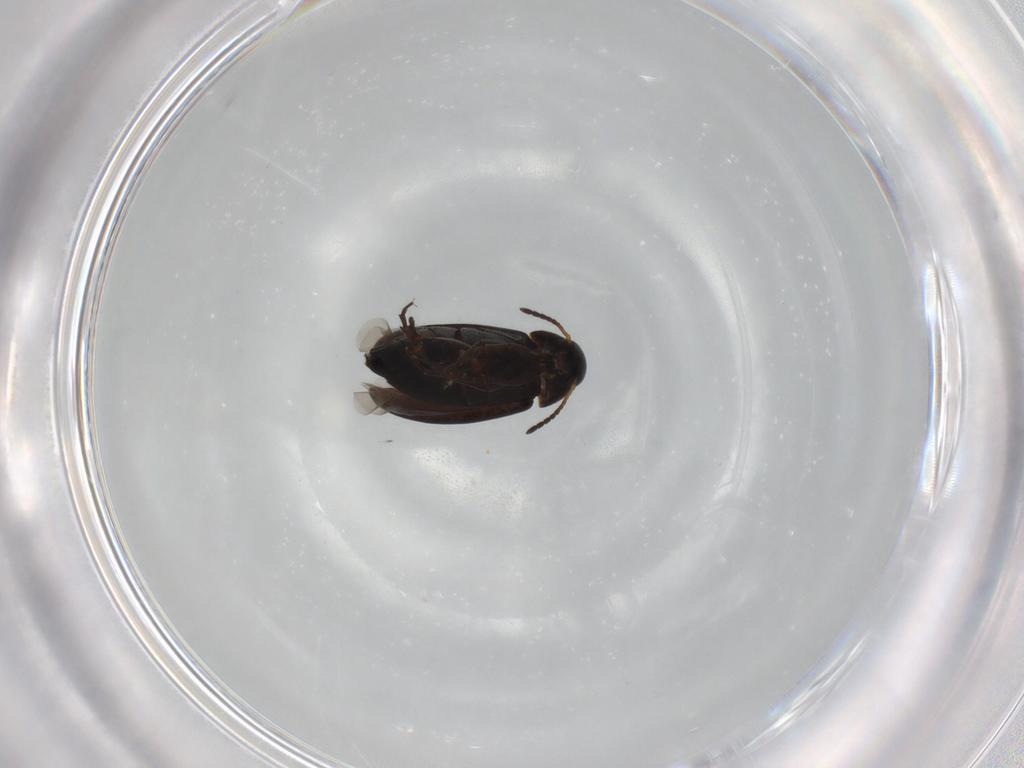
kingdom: Animalia
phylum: Arthropoda
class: Insecta
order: Coleoptera
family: Scraptiidae
